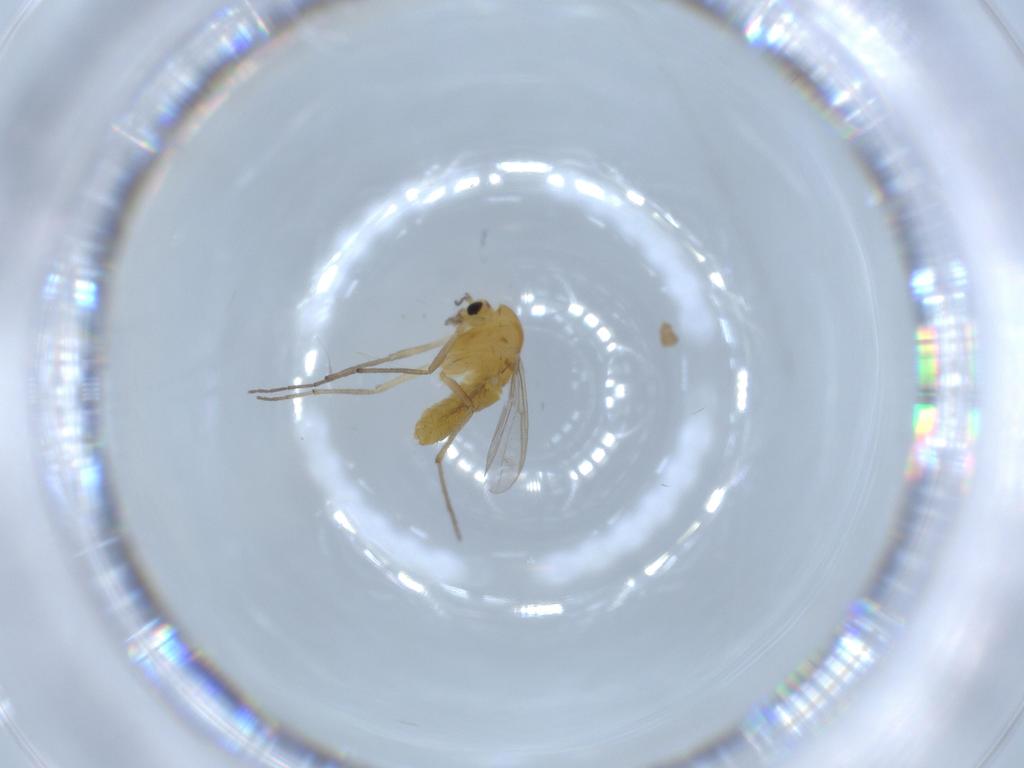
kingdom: Animalia
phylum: Arthropoda
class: Insecta
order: Diptera
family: Chironomidae
